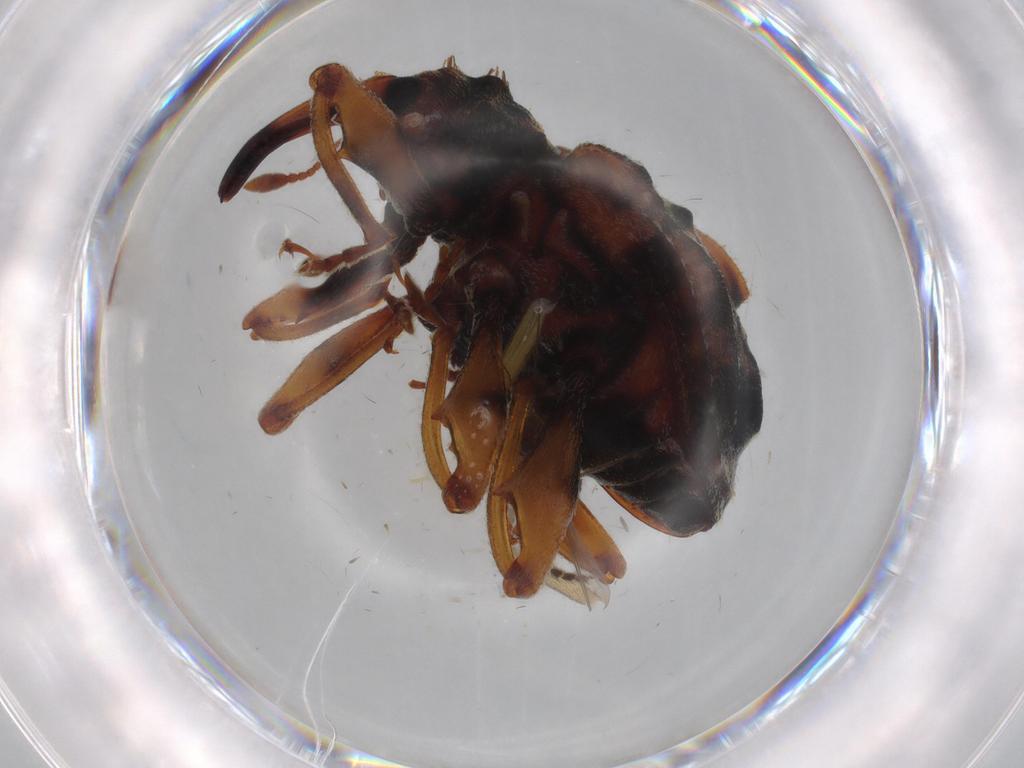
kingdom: Animalia
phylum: Arthropoda
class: Insecta
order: Coleoptera
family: Curculionidae
